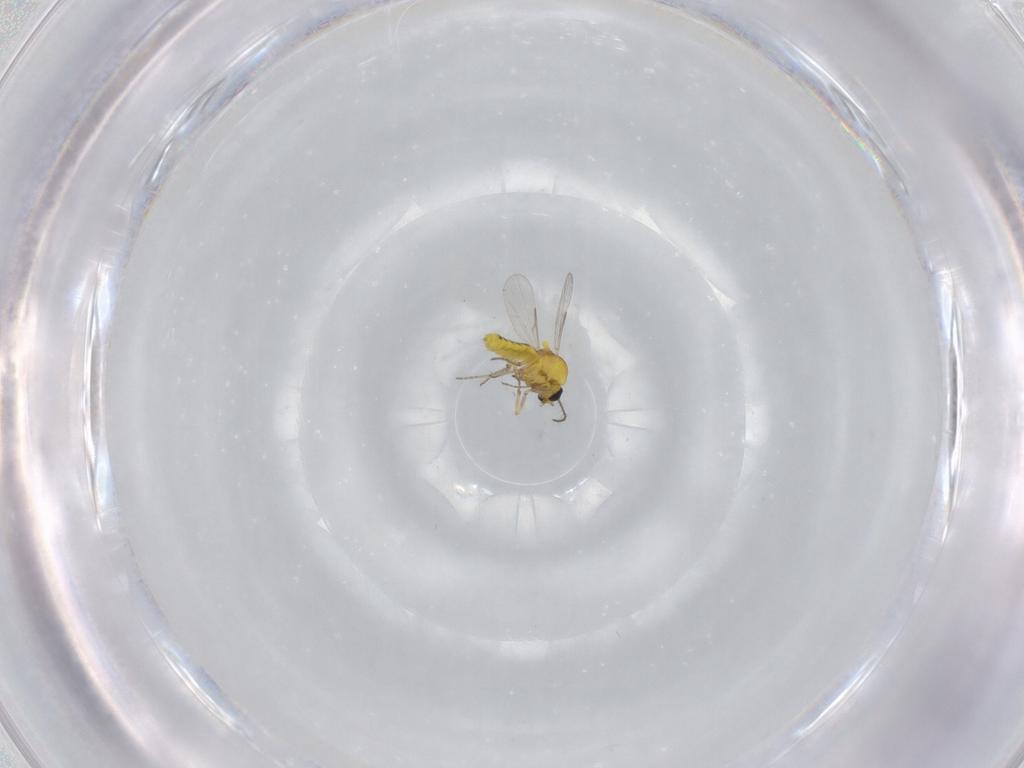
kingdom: Animalia
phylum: Arthropoda
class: Insecta
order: Diptera
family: Ceratopogonidae
